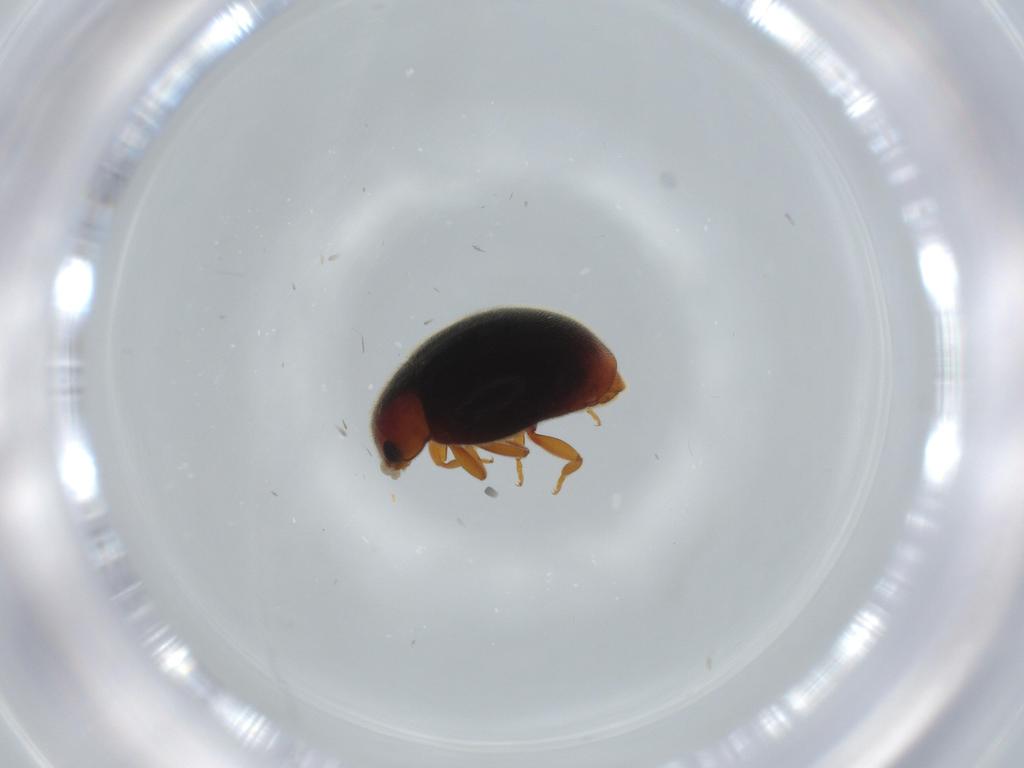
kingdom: Animalia
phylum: Arthropoda
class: Insecta
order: Coleoptera
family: Coccinellidae
